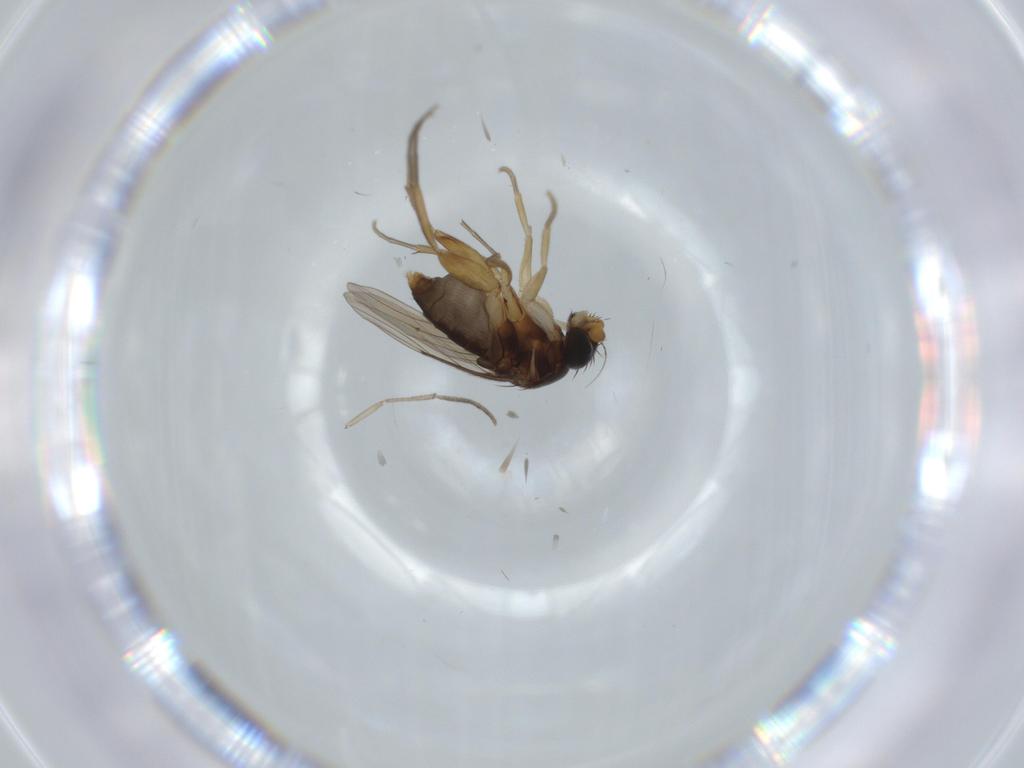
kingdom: Animalia
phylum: Arthropoda
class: Insecta
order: Diptera
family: Phoridae
